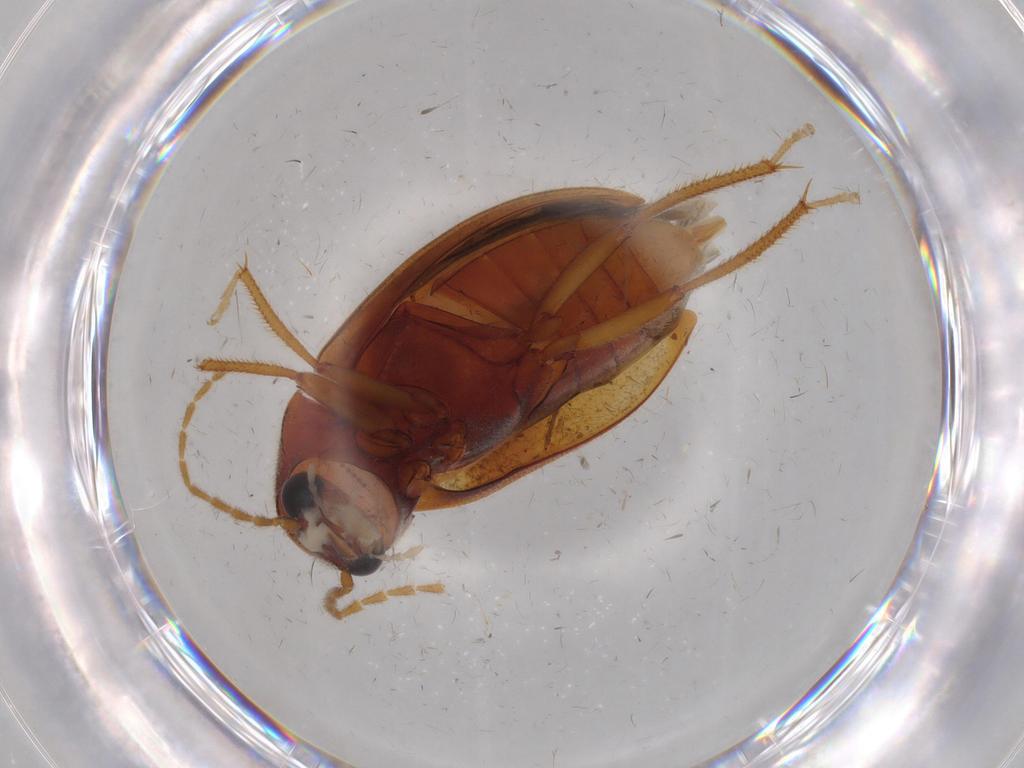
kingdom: Animalia
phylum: Arthropoda
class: Insecta
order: Coleoptera
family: Ptilodactylidae
